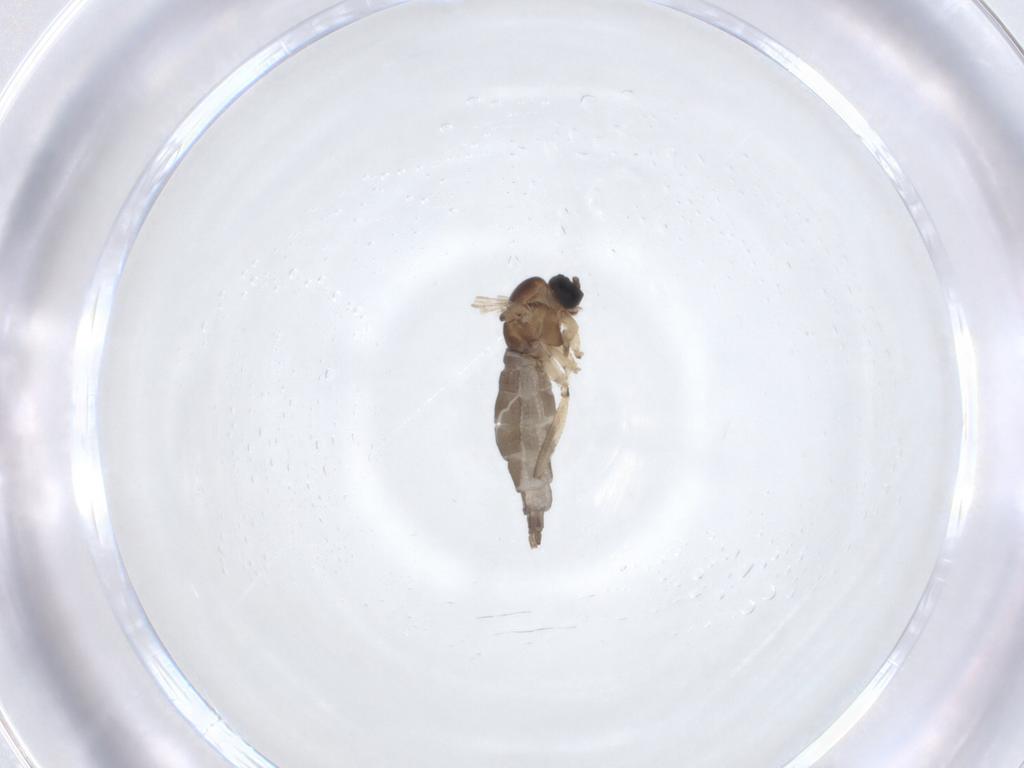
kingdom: Animalia
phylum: Arthropoda
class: Insecta
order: Diptera
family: Sciaridae
